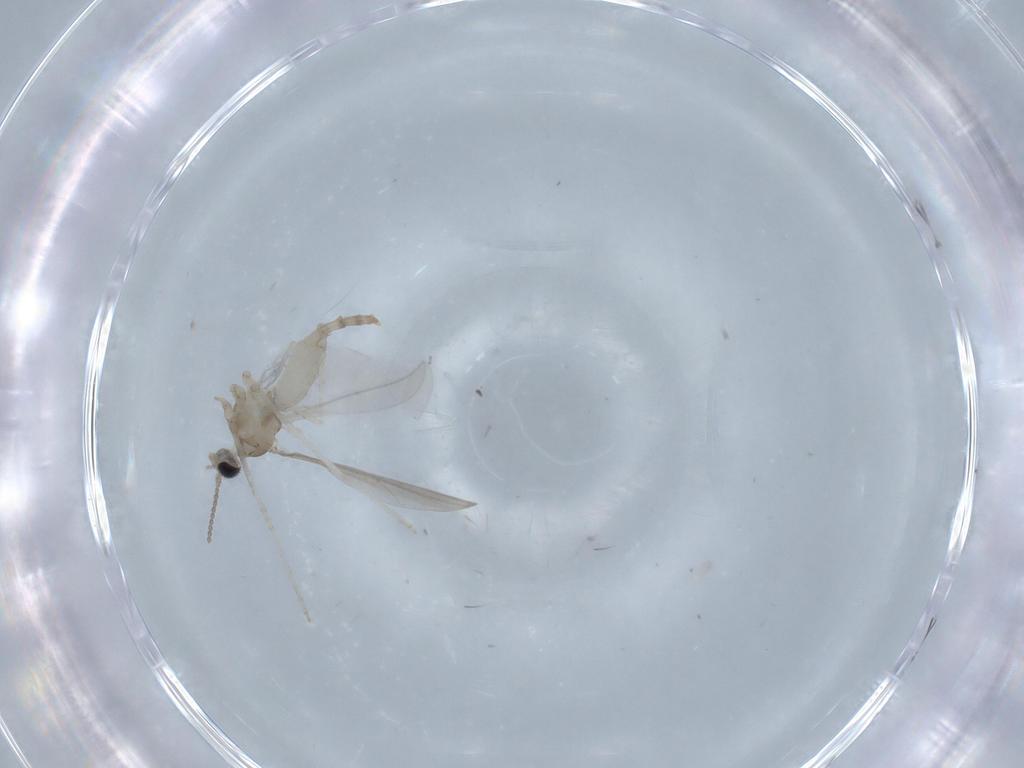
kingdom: Animalia
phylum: Arthropoda
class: Insecta
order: Diptera
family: Cecidomyiidae
